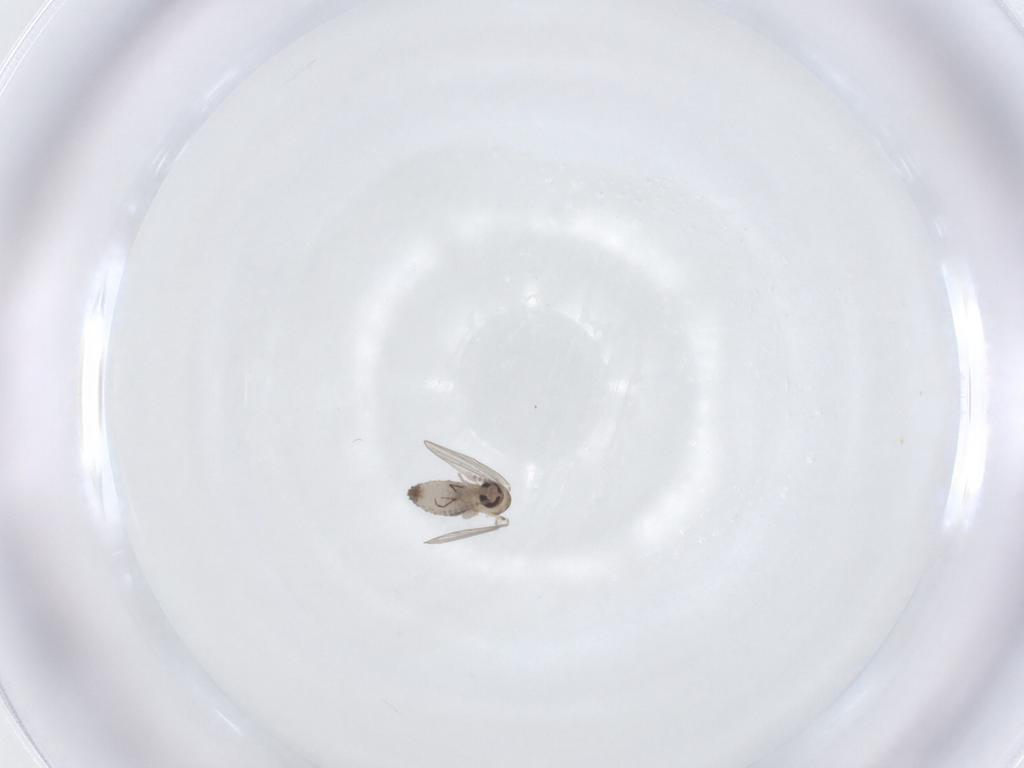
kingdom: Animalia
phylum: Arthropoda
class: Insecta
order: Diptera
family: Psychodidae
